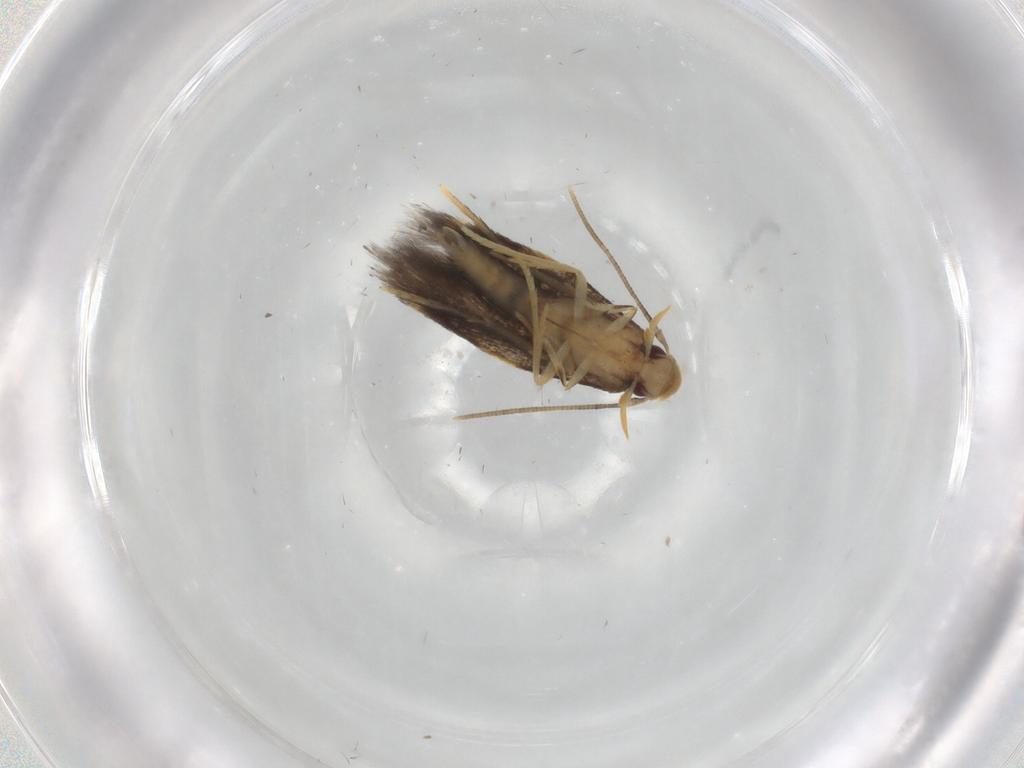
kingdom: Animalia
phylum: Arthropoda
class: Insecta
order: Lepidoptera
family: Gelechiidae
